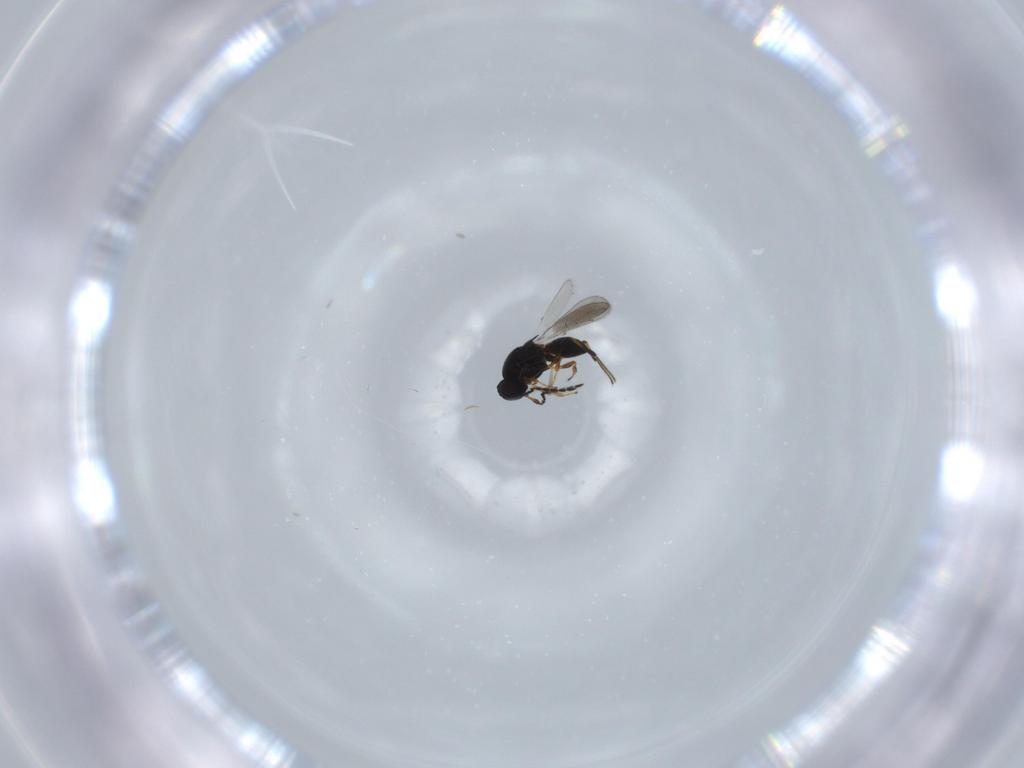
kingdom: Animalia
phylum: Arthropoda
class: Insecta
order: Hymenoptera
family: Platygastridae
